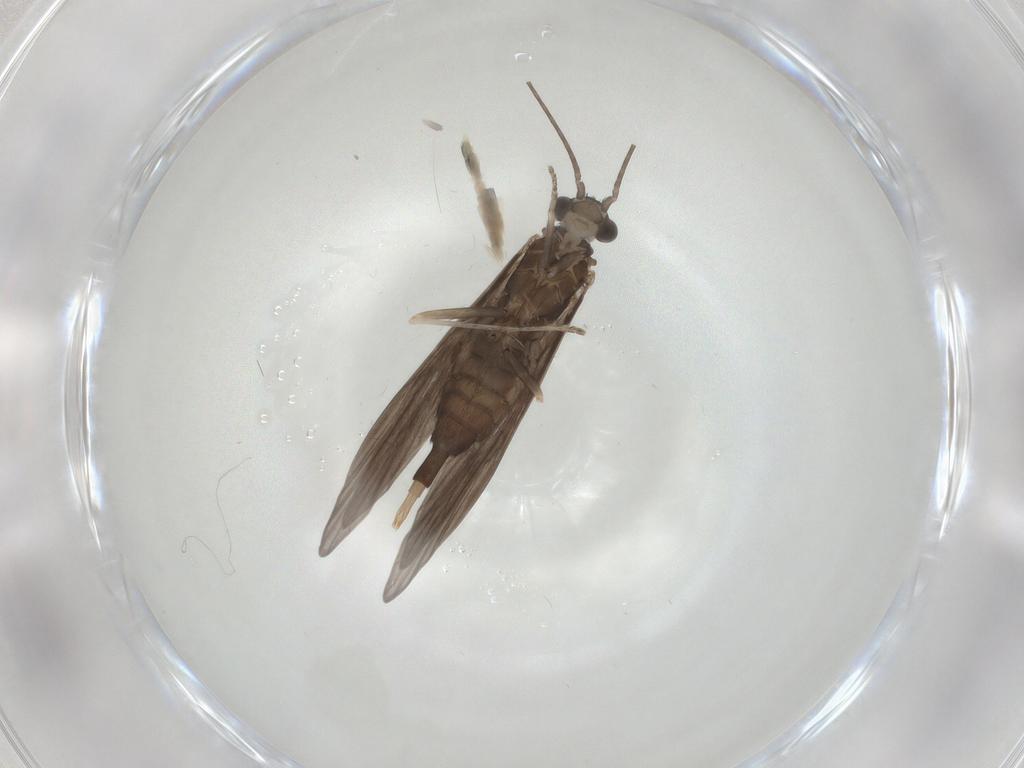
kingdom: Animalia
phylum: Arthropoda
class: Insecta
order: Trichoptera
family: Xiphocentronidae
